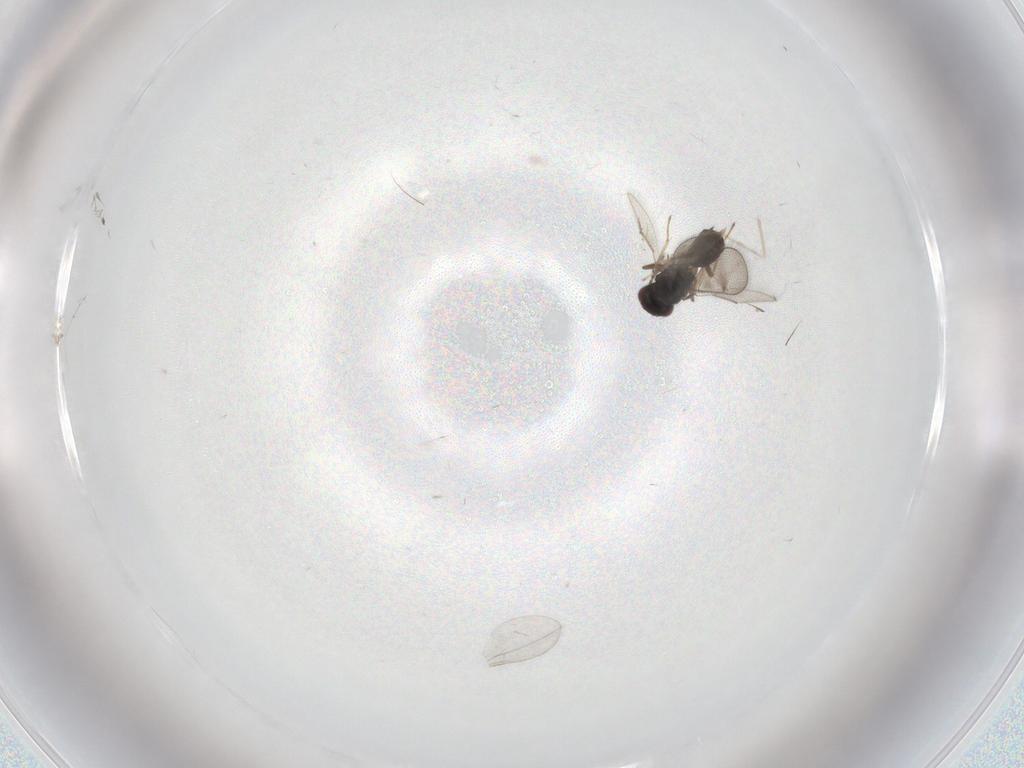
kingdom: Animalia
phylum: Arthropoda
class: Insecta
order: Hymenoptera
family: Eulophidae
